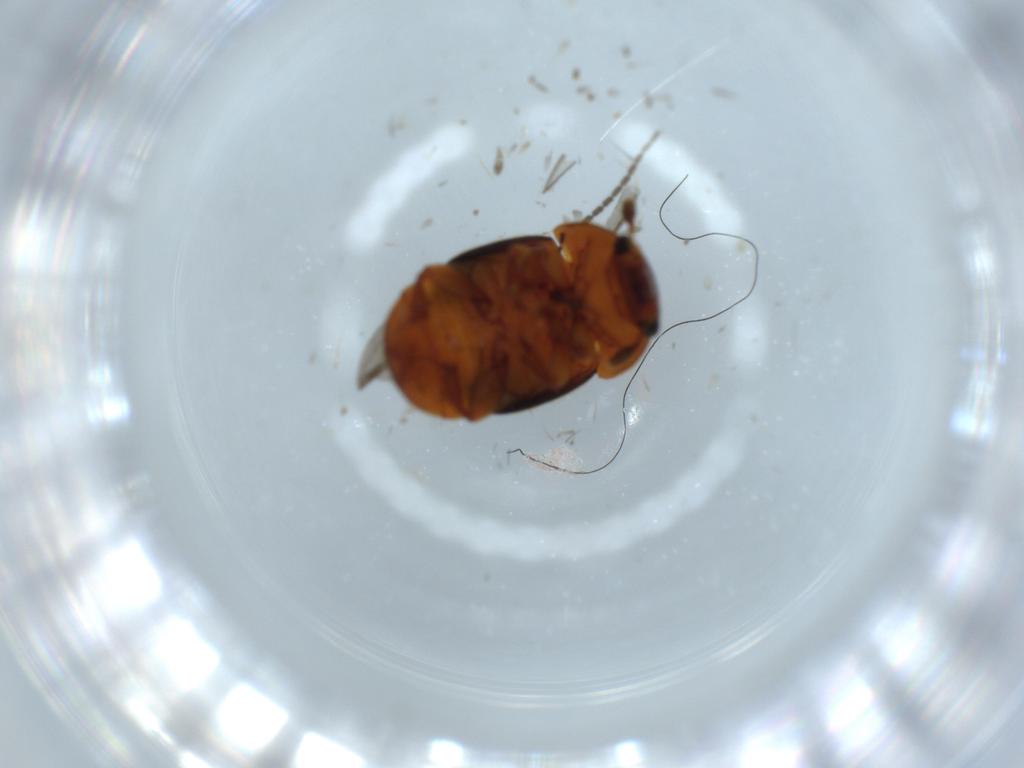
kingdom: Animalia
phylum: Arthropoda
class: Insecta
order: Coleoptera
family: Nitidulidae
